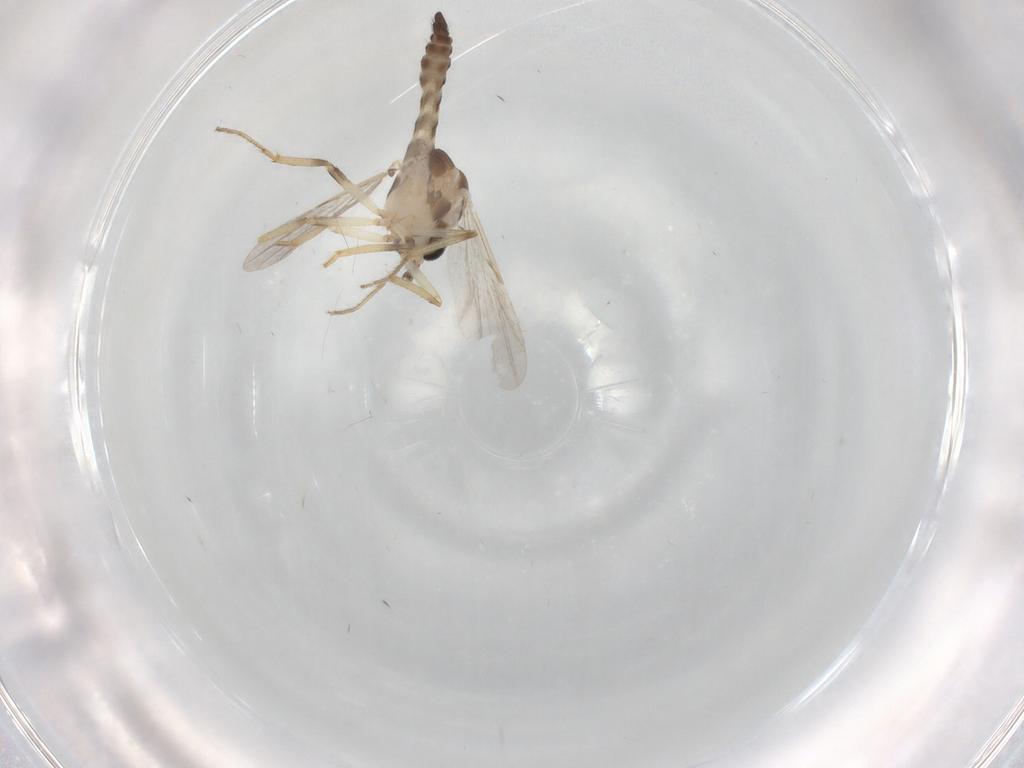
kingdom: Animalia
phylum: Arthropoda
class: Insecta
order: Diptera
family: Ceratopogonidae
